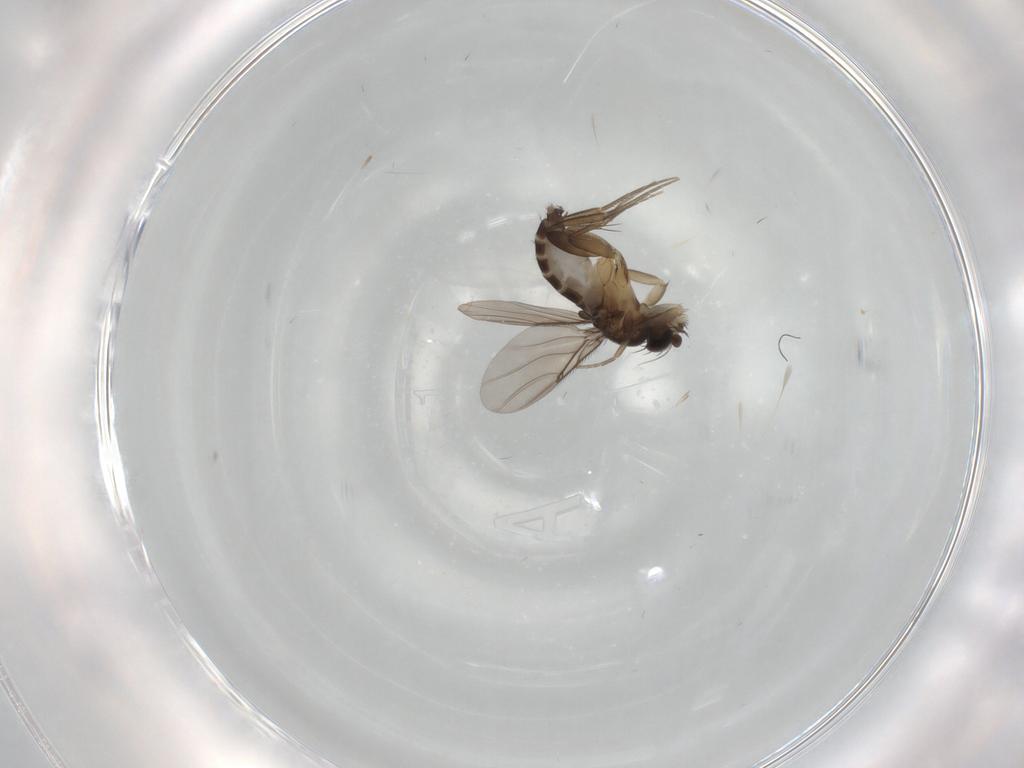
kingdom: Animalia
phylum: Arthropoda
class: Insecta
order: Diptera
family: Phoridae
